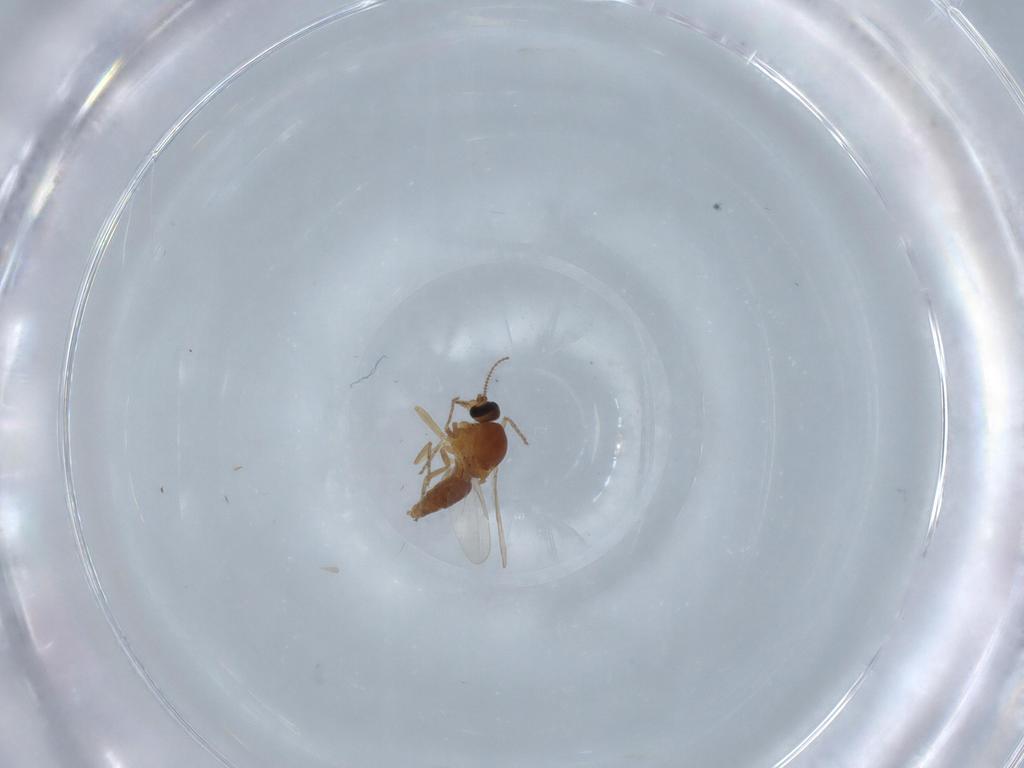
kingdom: Animalia
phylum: Arthropoda
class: Insecta
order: Diptera
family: Ceratopogonidae
